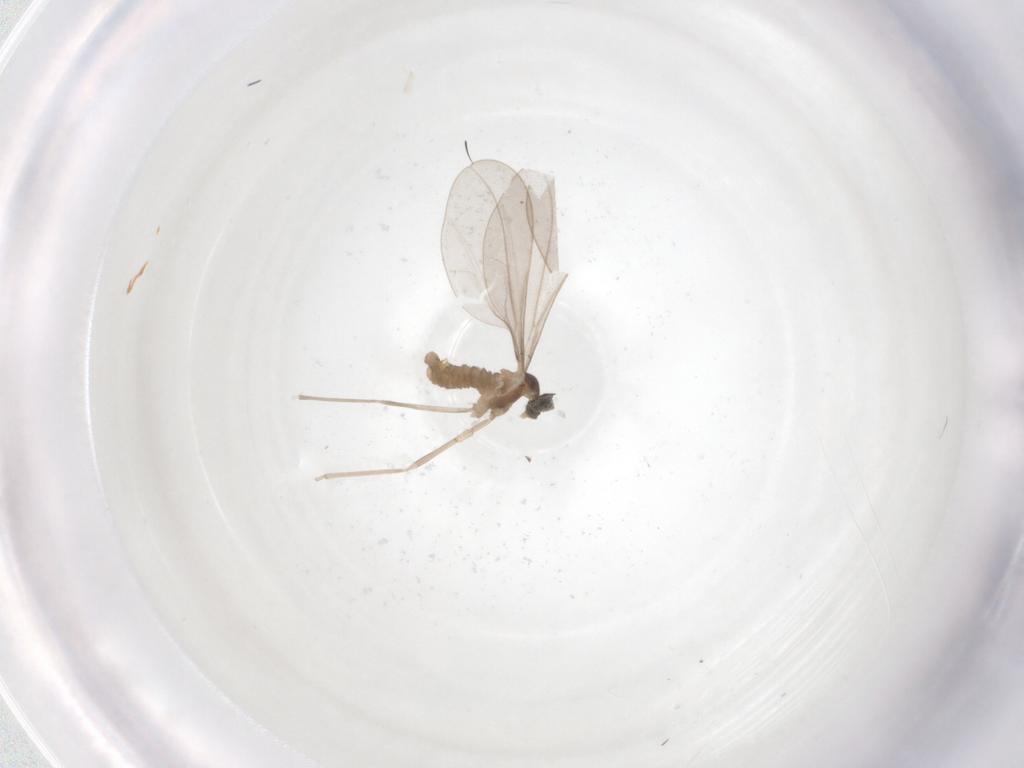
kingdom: Animalia
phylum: Arthropoda
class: Insecta
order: Diptera
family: Cecidomyiidae
